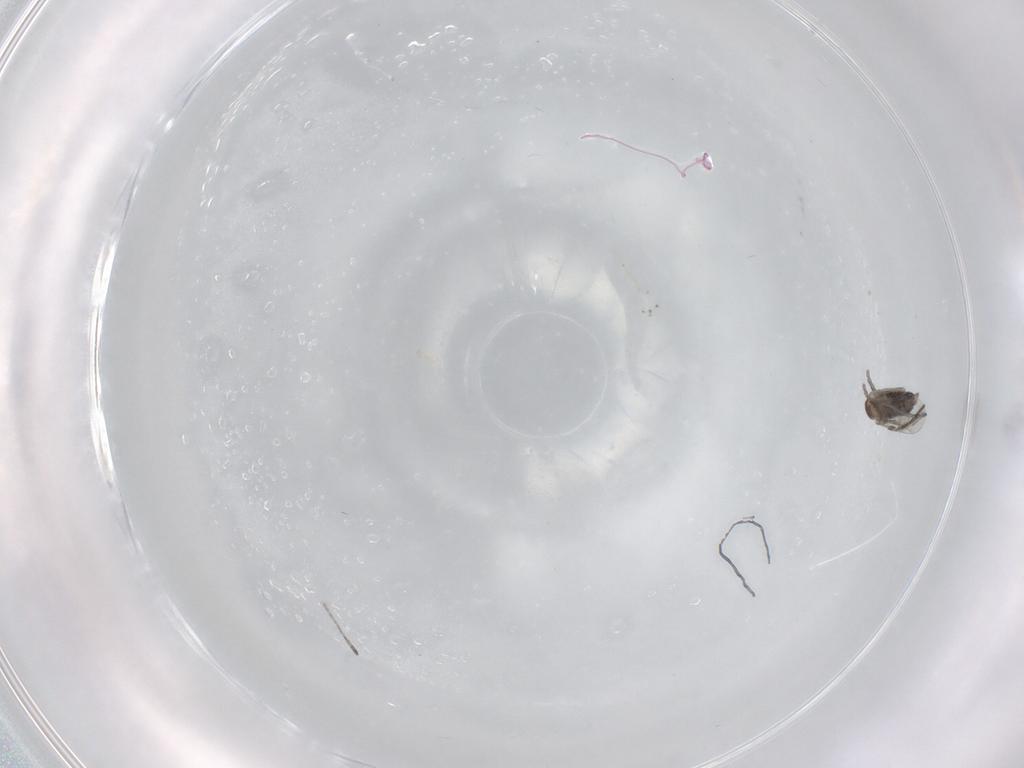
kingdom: Animalia
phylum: Arthropoda
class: Insecta
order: Diptera
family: Cecidomyiidae
